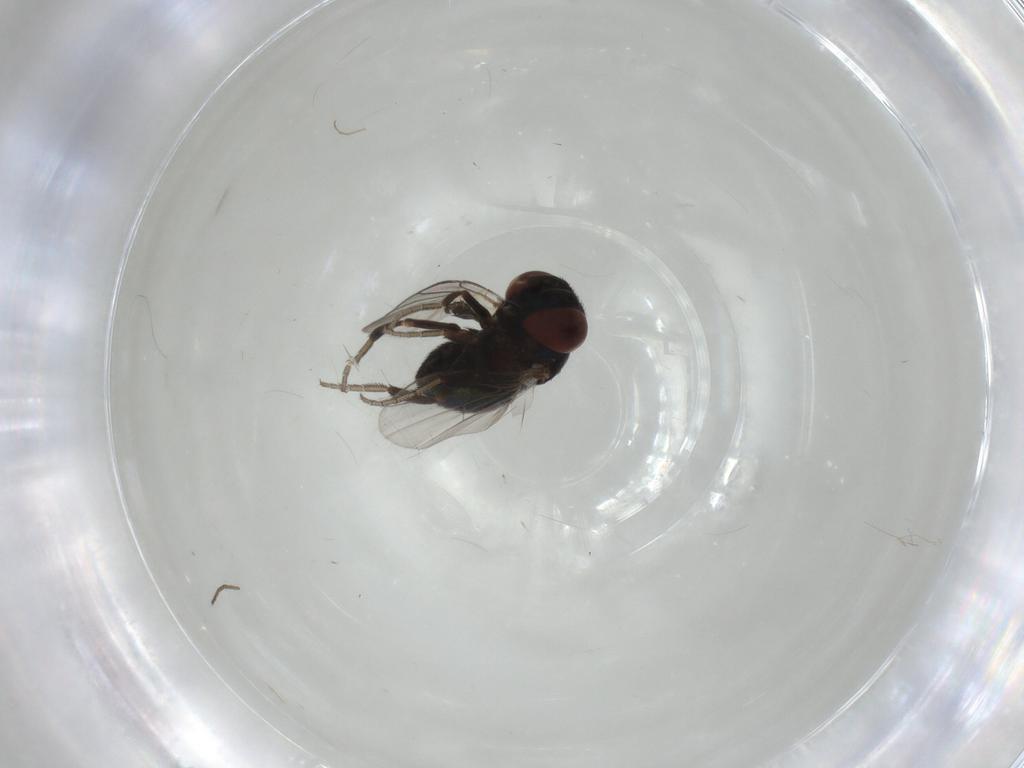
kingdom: Animalia
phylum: Arthropoda
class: Insecta
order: Diptera
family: Cryptochetidae
